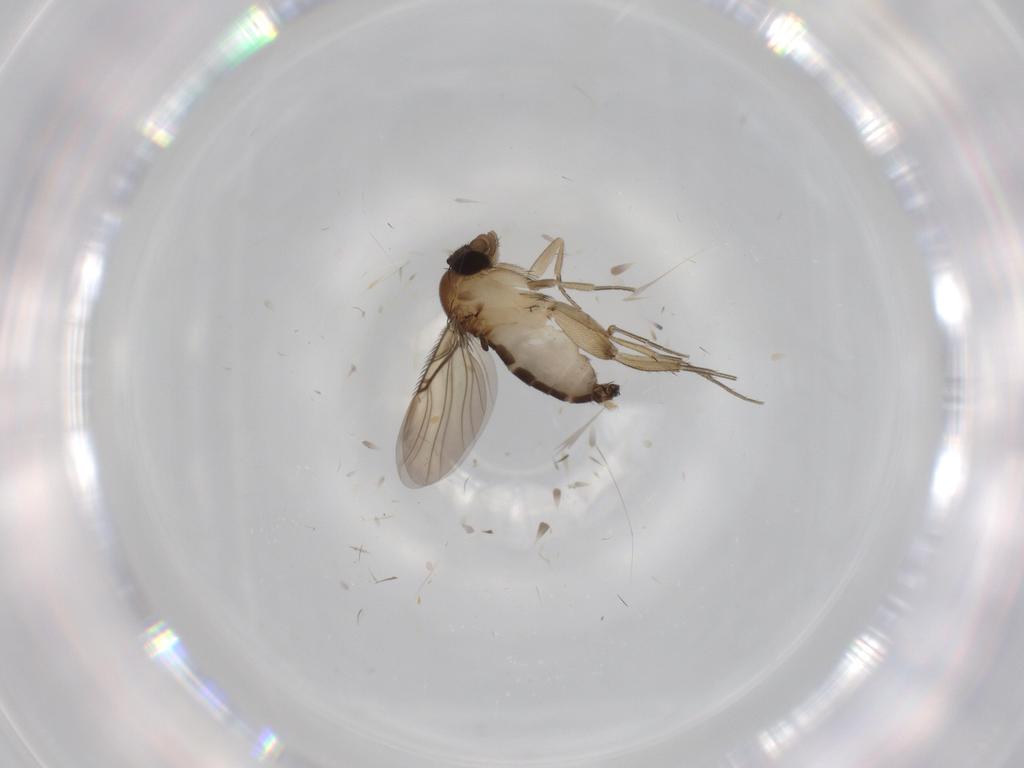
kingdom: Animalia
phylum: Arthropoda
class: Insecta
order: Diptera
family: Phoridae
